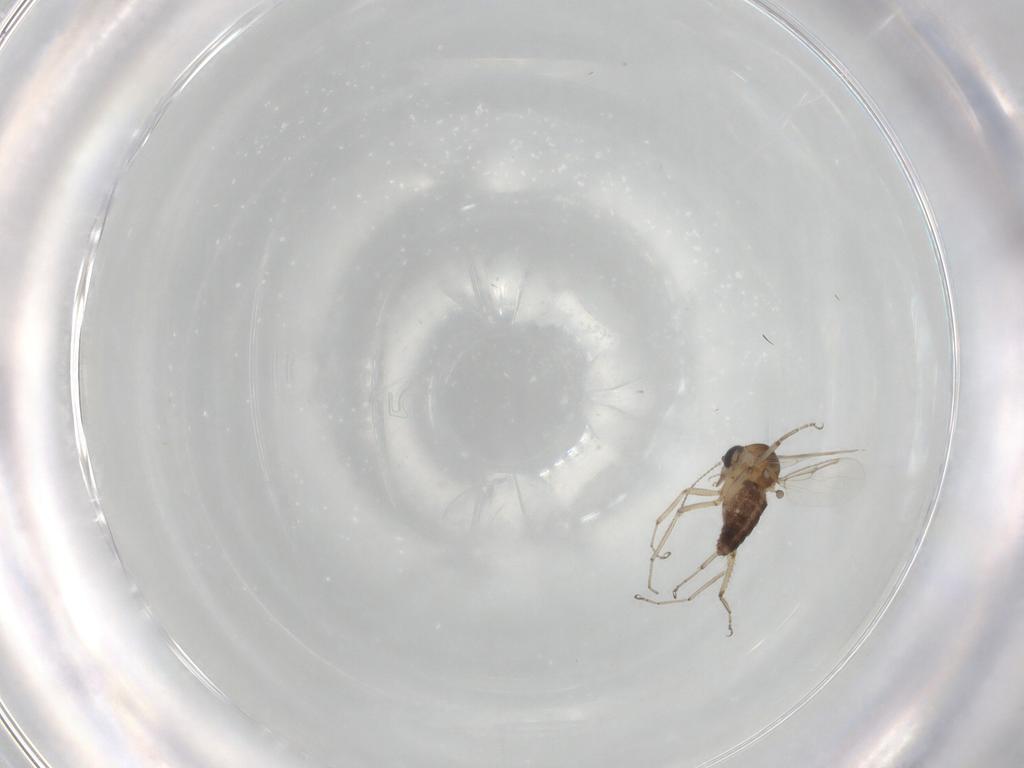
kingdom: Animalia
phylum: Arthropoda
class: Insecta
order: Diptera
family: Ceratopogonidae
